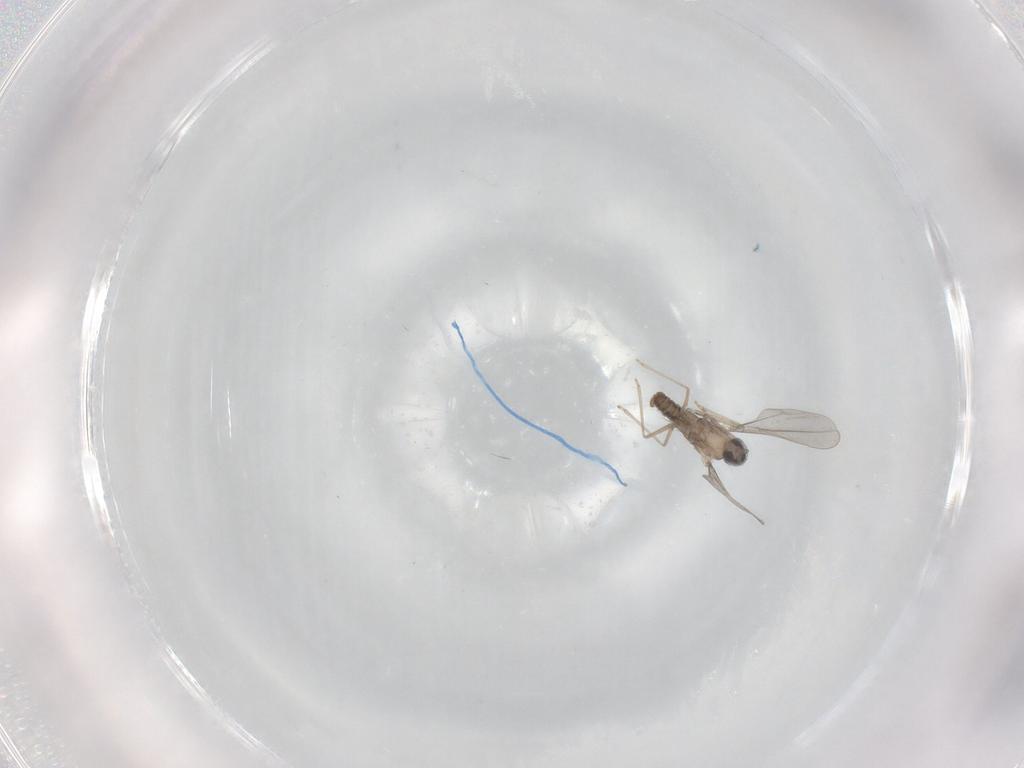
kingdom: Animalia
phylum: Arthropoda
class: Insecta
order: Diptera
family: Cecidomyiidae
